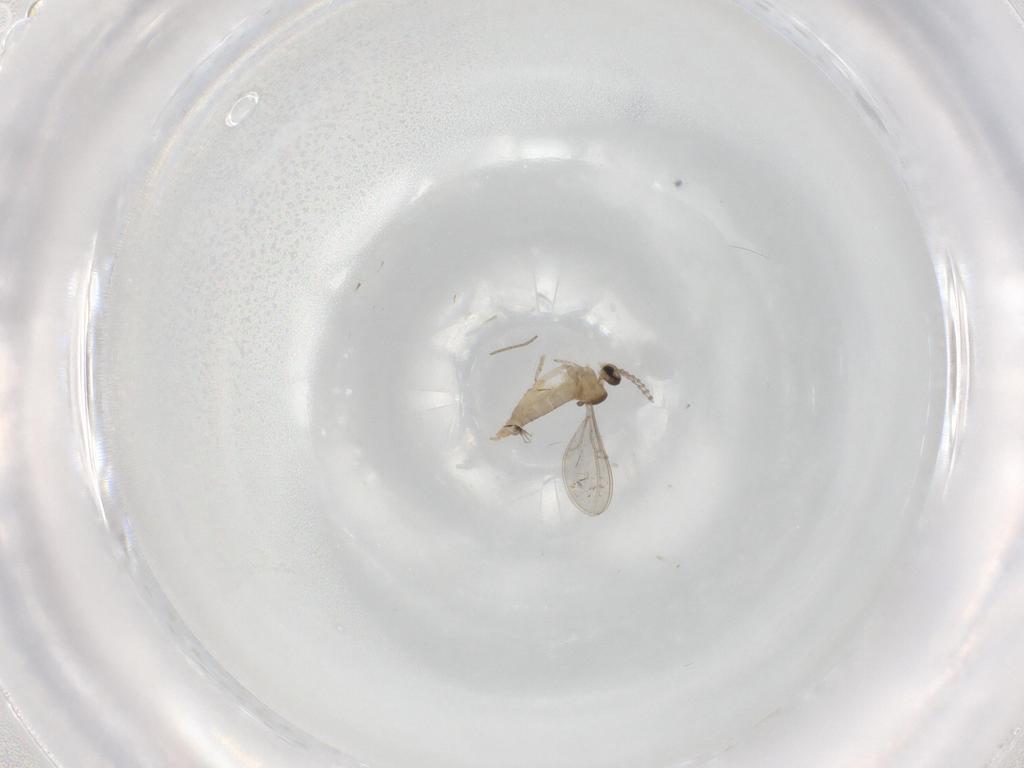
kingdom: Animalia
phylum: Arthropoda
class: Insecta
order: Diptera
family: Cecidomyiidae
